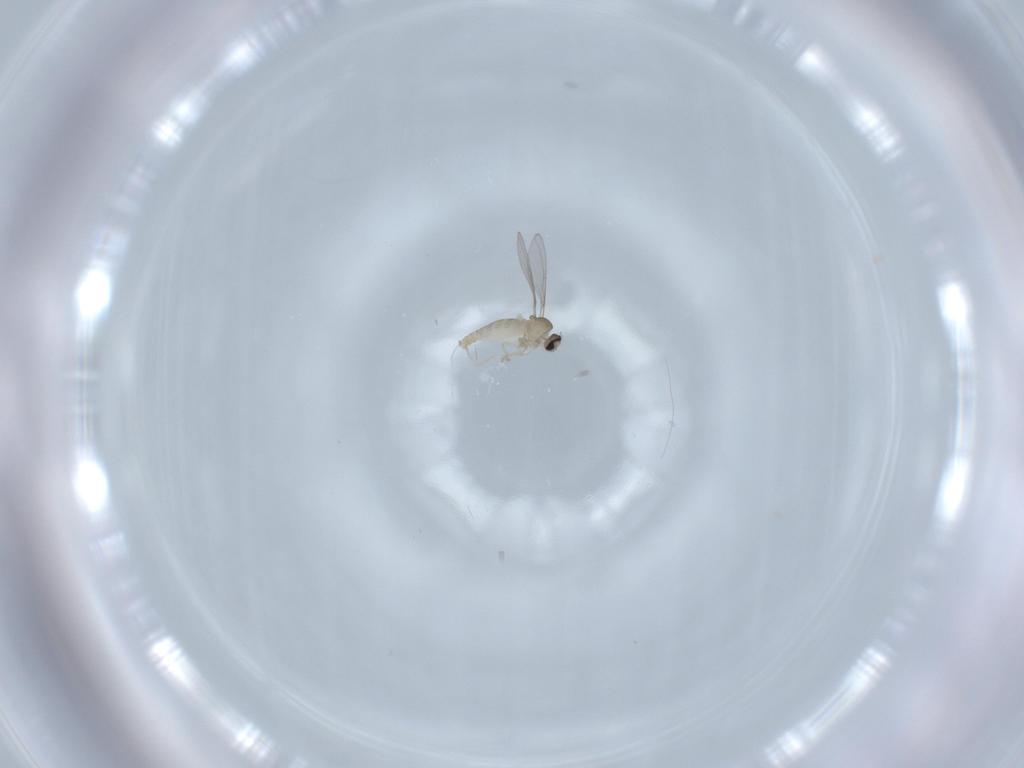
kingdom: Animalia
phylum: Arthropoda
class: Insecta
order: Diptera
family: Cecidomyiidae
